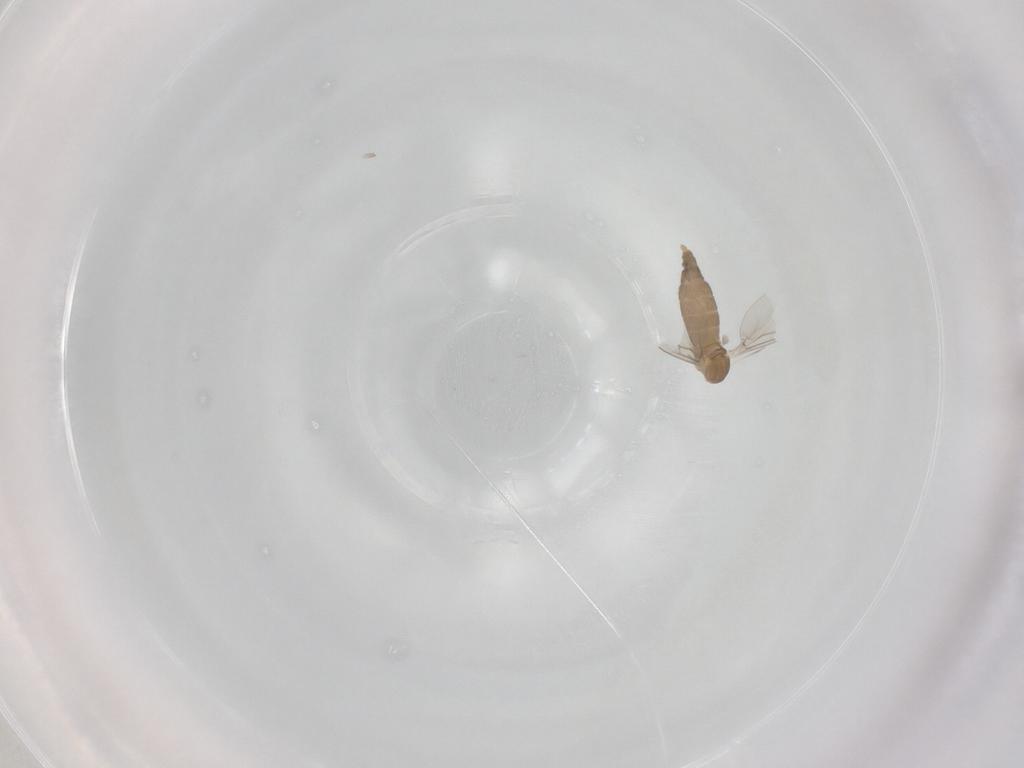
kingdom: Animalia
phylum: Arthropoda
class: Insecta
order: Diptera
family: Cecidomyiidae
